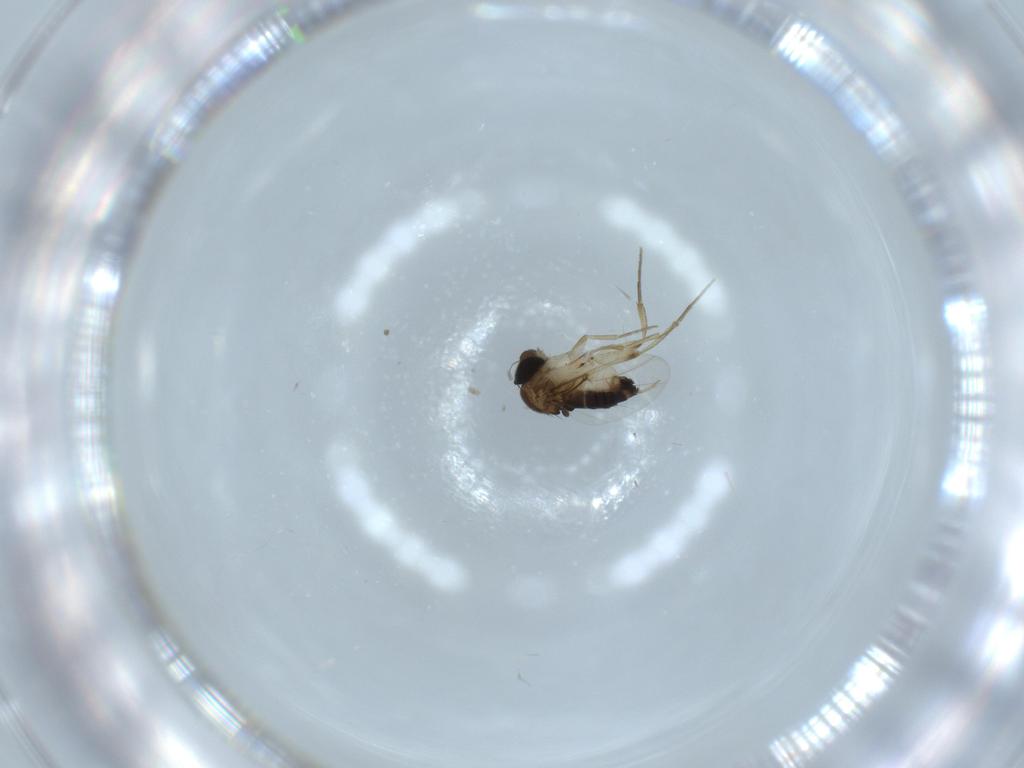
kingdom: Animalia
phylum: Arthropoda
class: Insecta
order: Diptera
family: Phoridae
